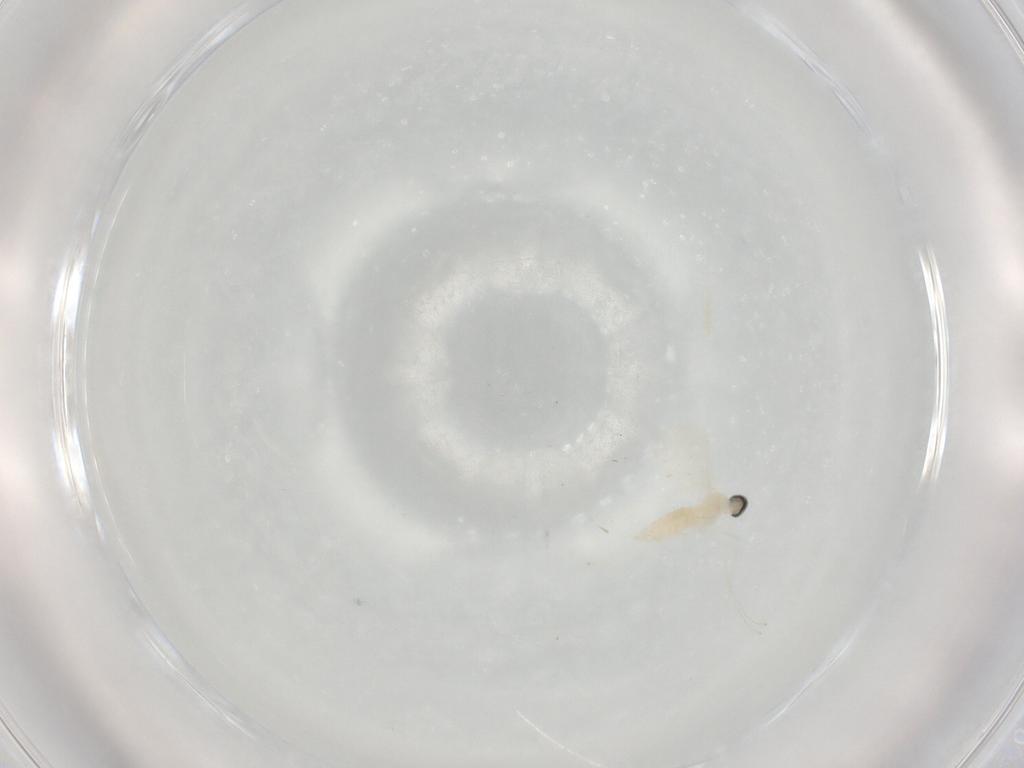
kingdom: Animalia
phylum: Arthropoda
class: Insecta
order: Diptera
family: Cecidomyiidae
